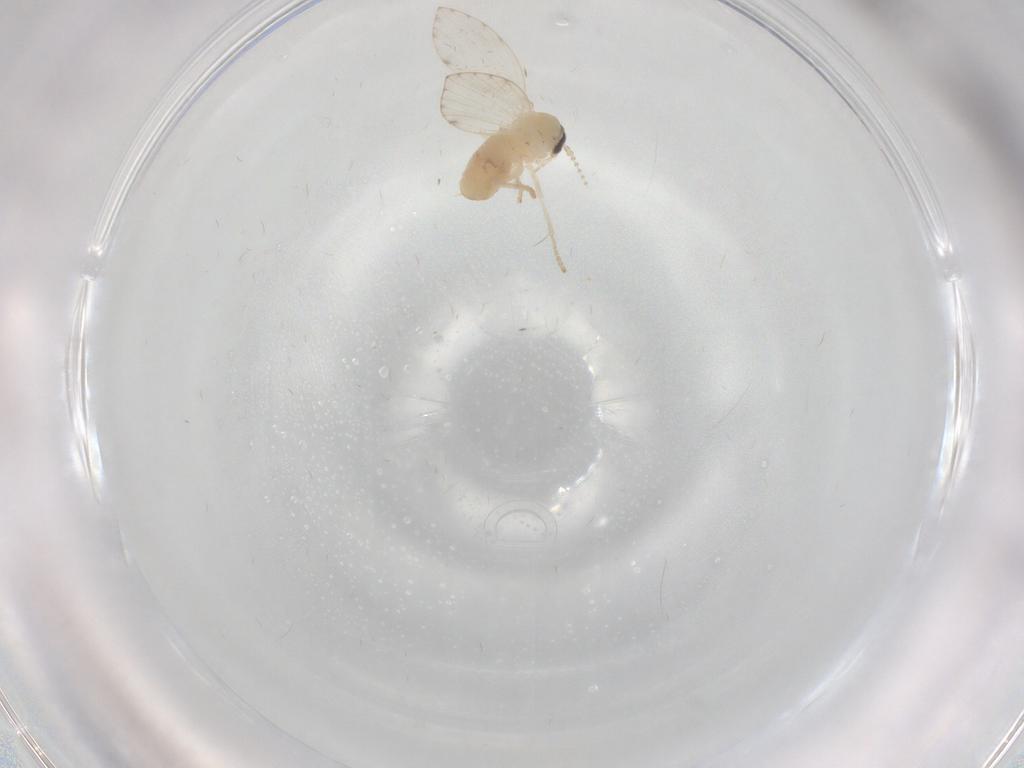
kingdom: Animalia
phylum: Arthropoda
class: Insecta
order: Diptera
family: Psychodidae
